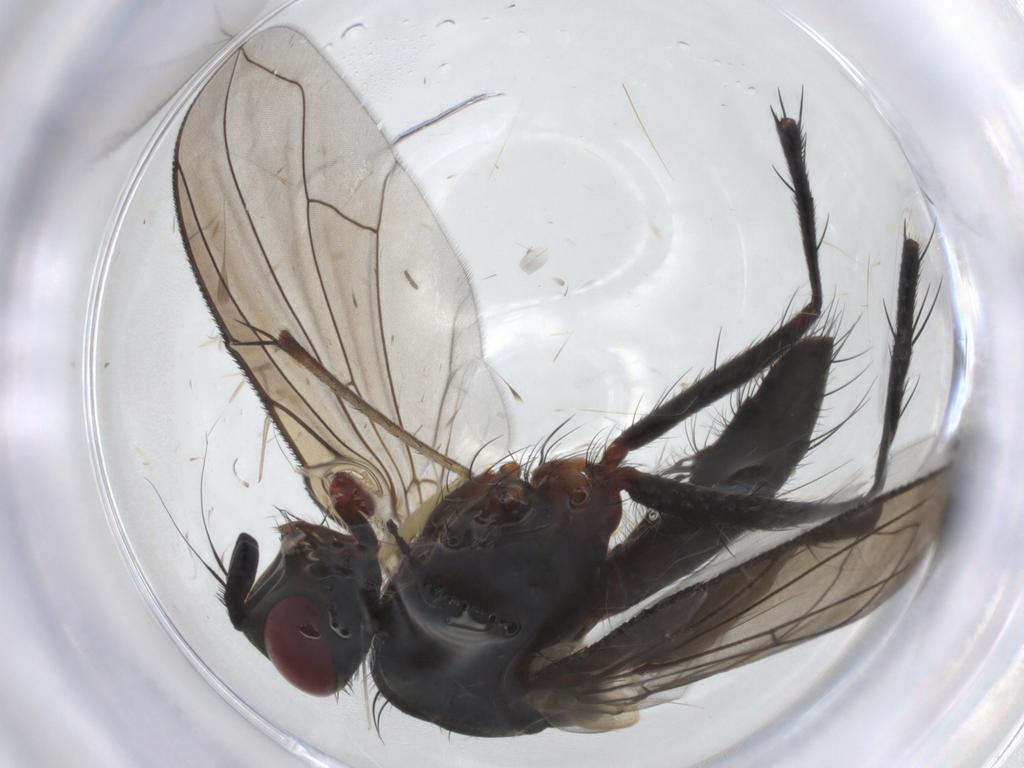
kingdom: Animalia
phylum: Arthropoda
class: Insecta
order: Diptera
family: Tachinidae
